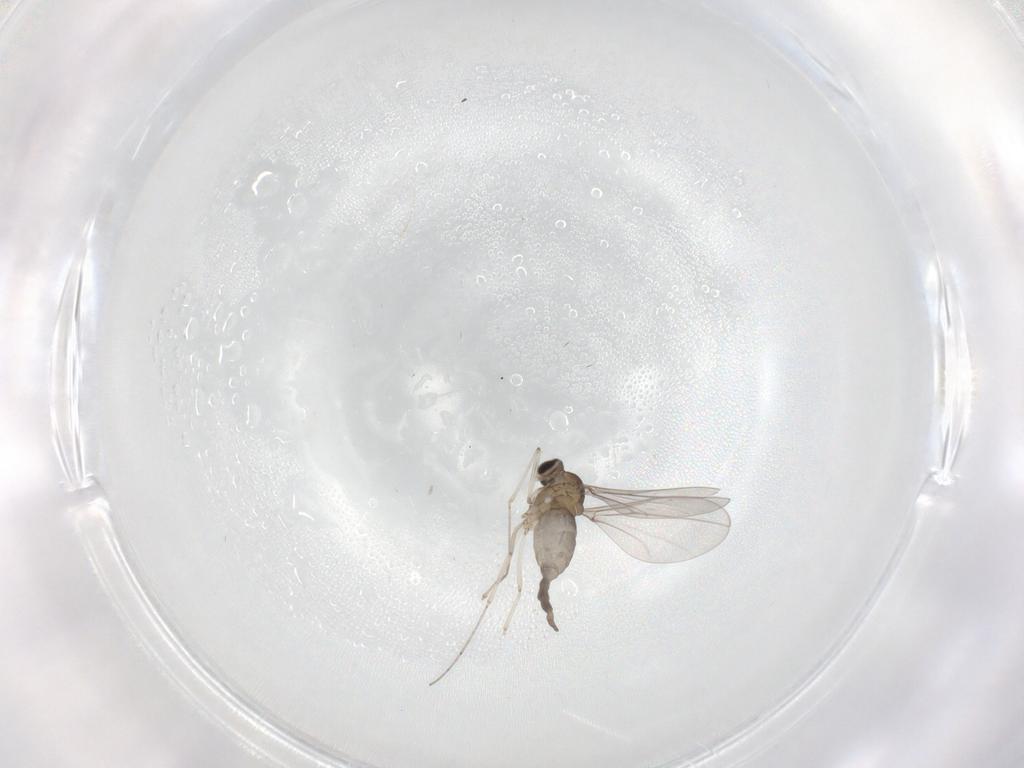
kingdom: Animalia
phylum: Arthropoda
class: Insecta
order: Diptera
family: Cecidomyiidae
